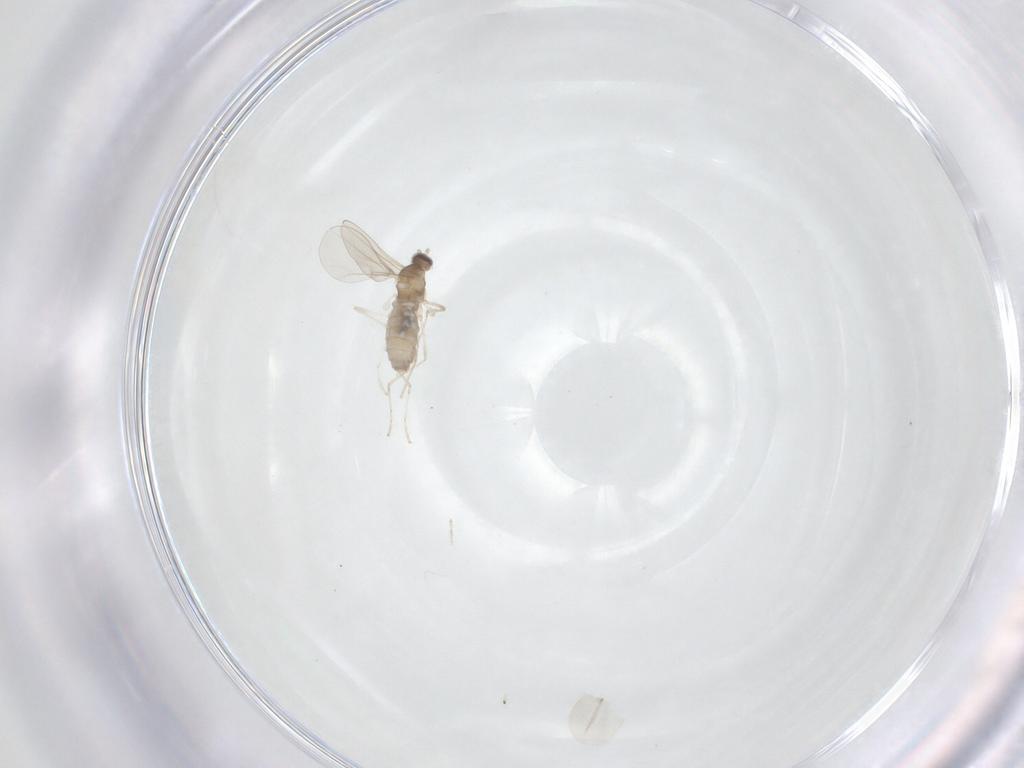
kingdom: Animalia
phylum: Arthropoda
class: Insecta
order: Diptera
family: Cecidomyiidae
